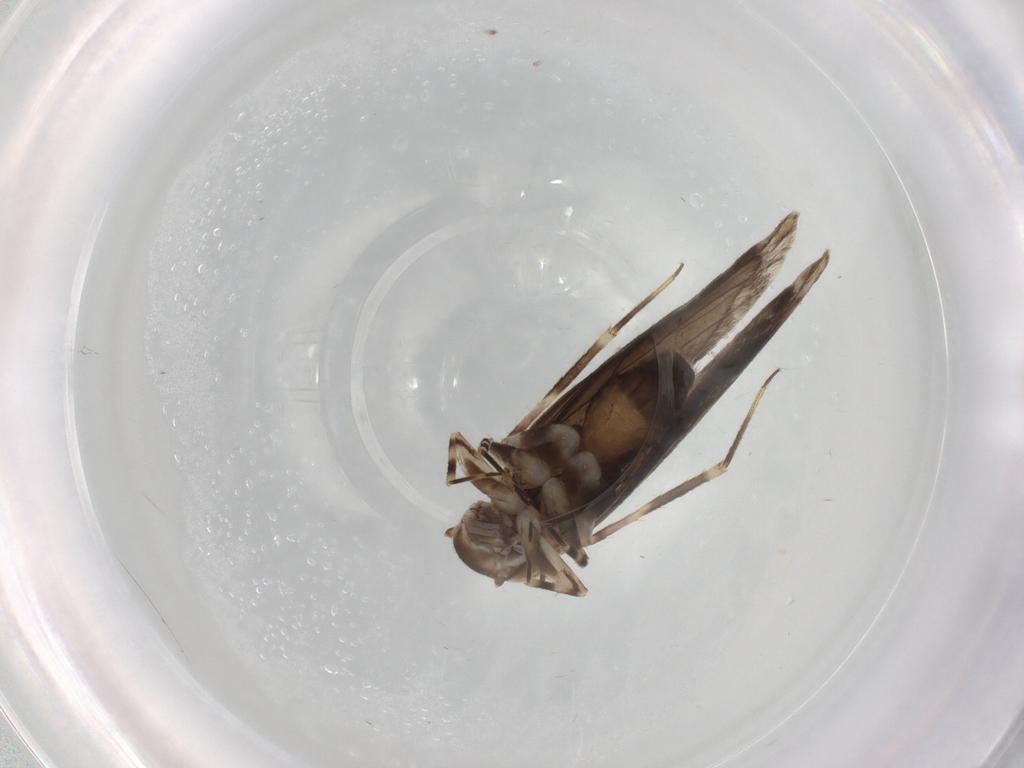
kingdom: Animalia
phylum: Arthropoda
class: Insecta
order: Psocodea
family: Amphientomidae
